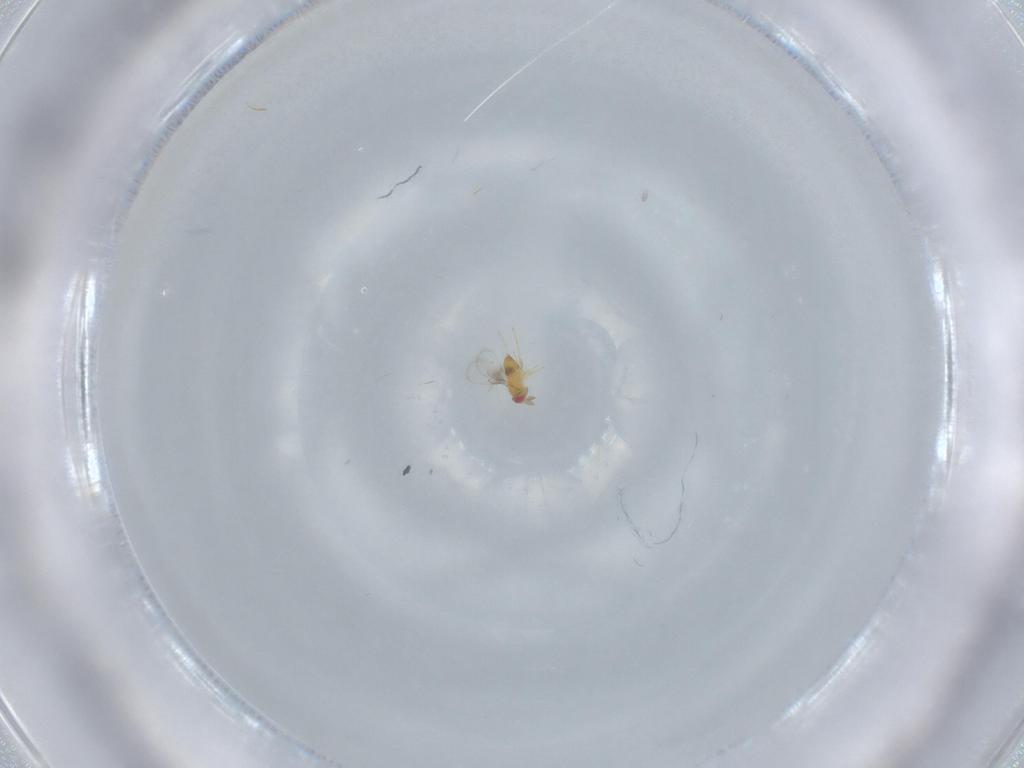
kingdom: Animalia
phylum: Arthropoda
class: Insecta
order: Hymenoptera
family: Trichogrammatidae
